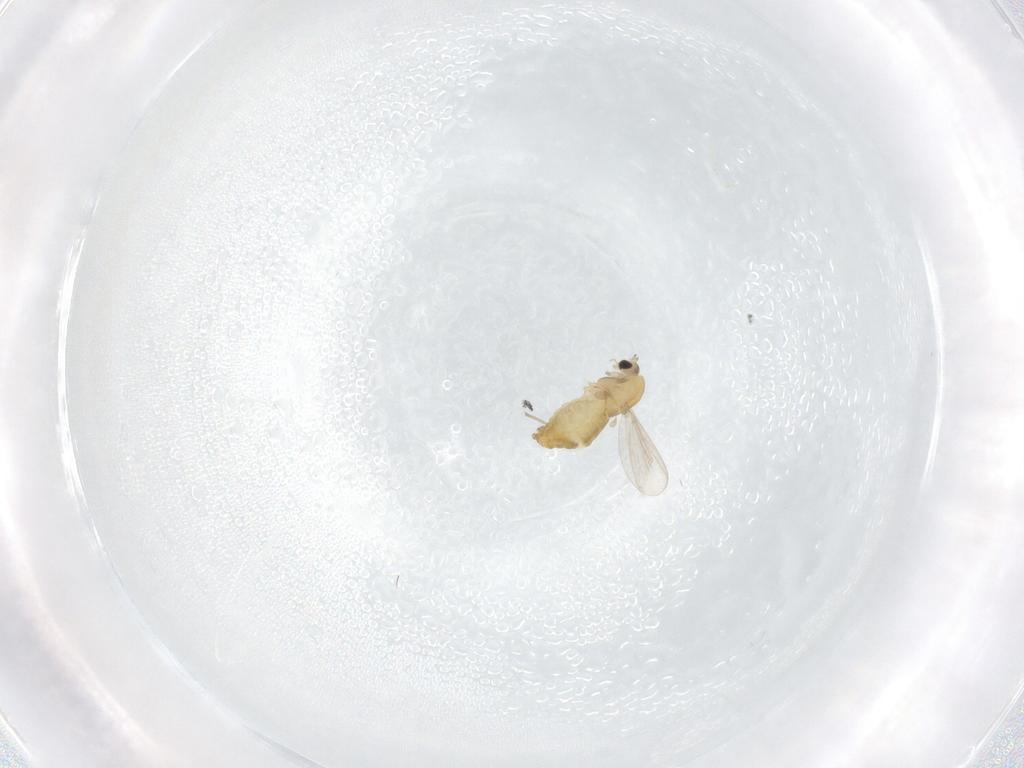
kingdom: Animalia
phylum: Arthropoda
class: Insecta
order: Diptera
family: Chironomidae
